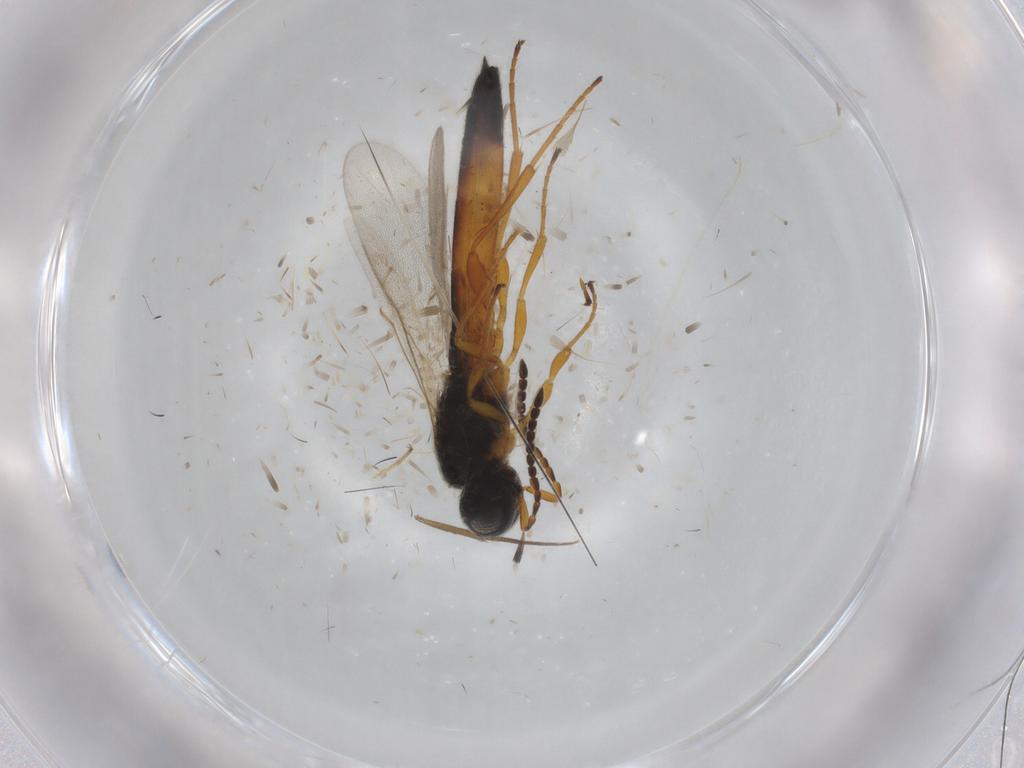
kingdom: Animalia
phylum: Arthropoda
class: Insecta
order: Hymenoptera
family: Scelionidae
